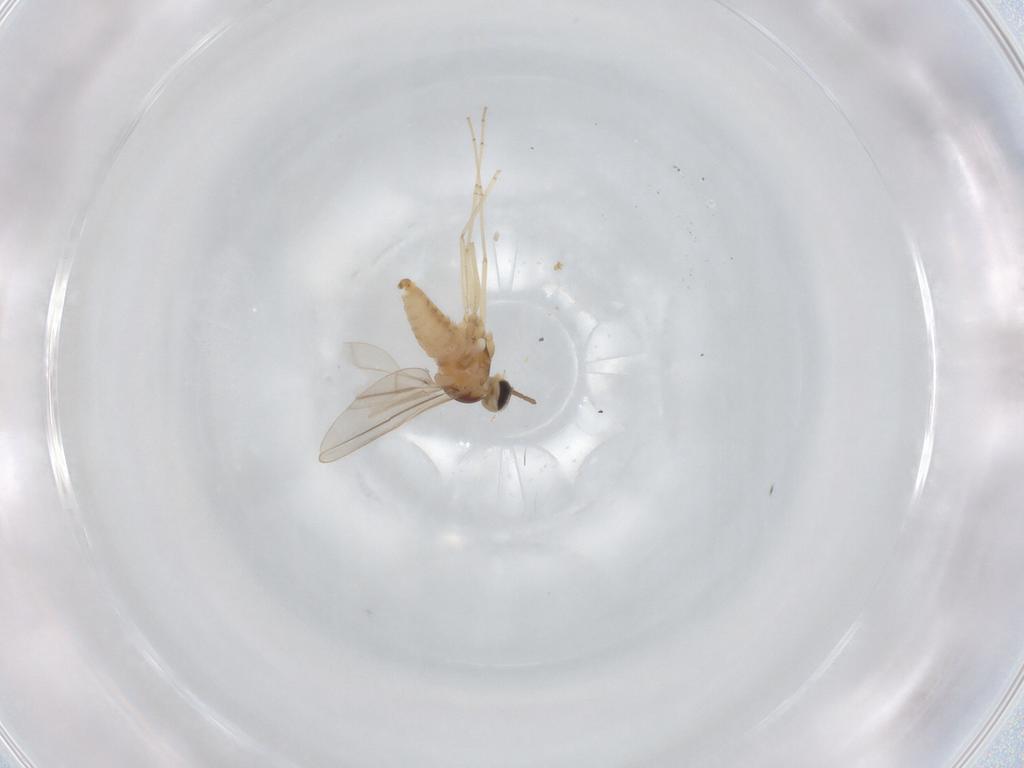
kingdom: Animalia
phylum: Arthropoda
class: Insecta
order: Diptera
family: Cecidomyiidae
